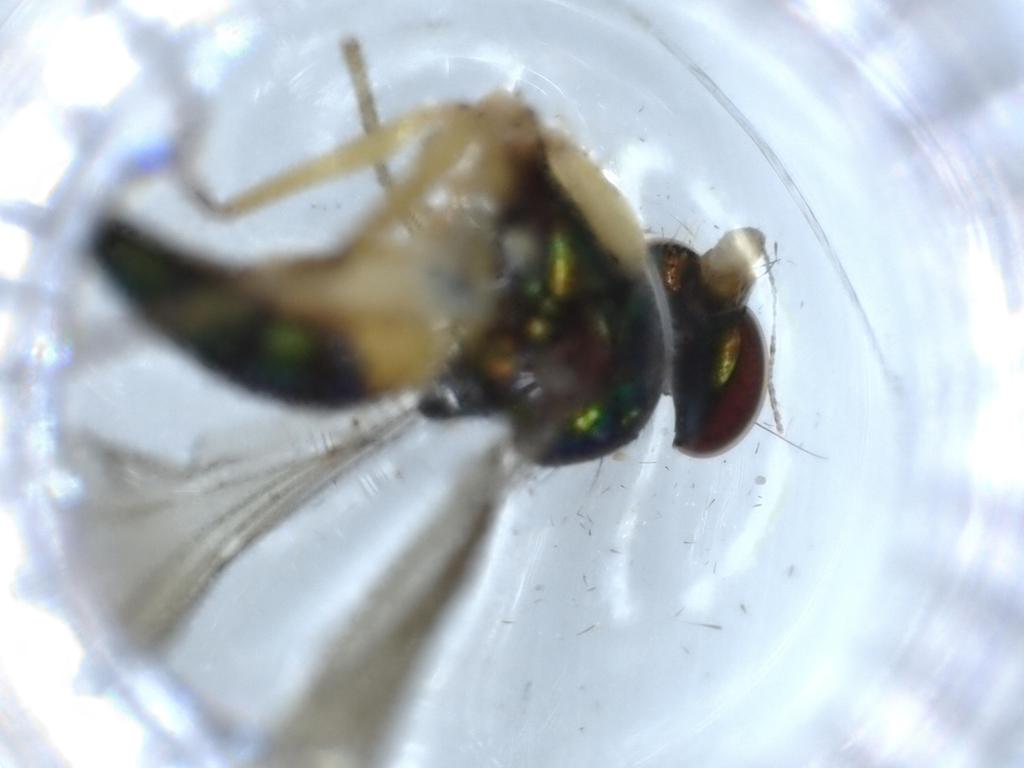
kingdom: Animalia
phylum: Arthropoda
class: Insecta
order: Diptera
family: Dolichopodidae
